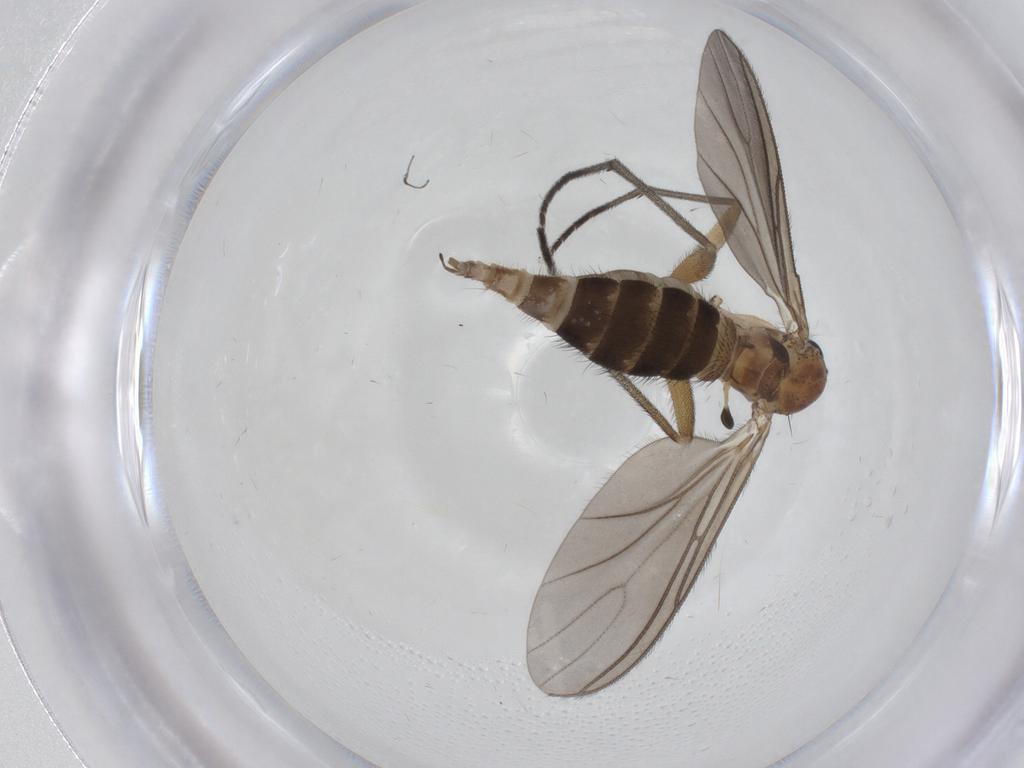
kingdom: Animalia
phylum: Arthropoda
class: Insecta
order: Diptera
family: Sciaridae
